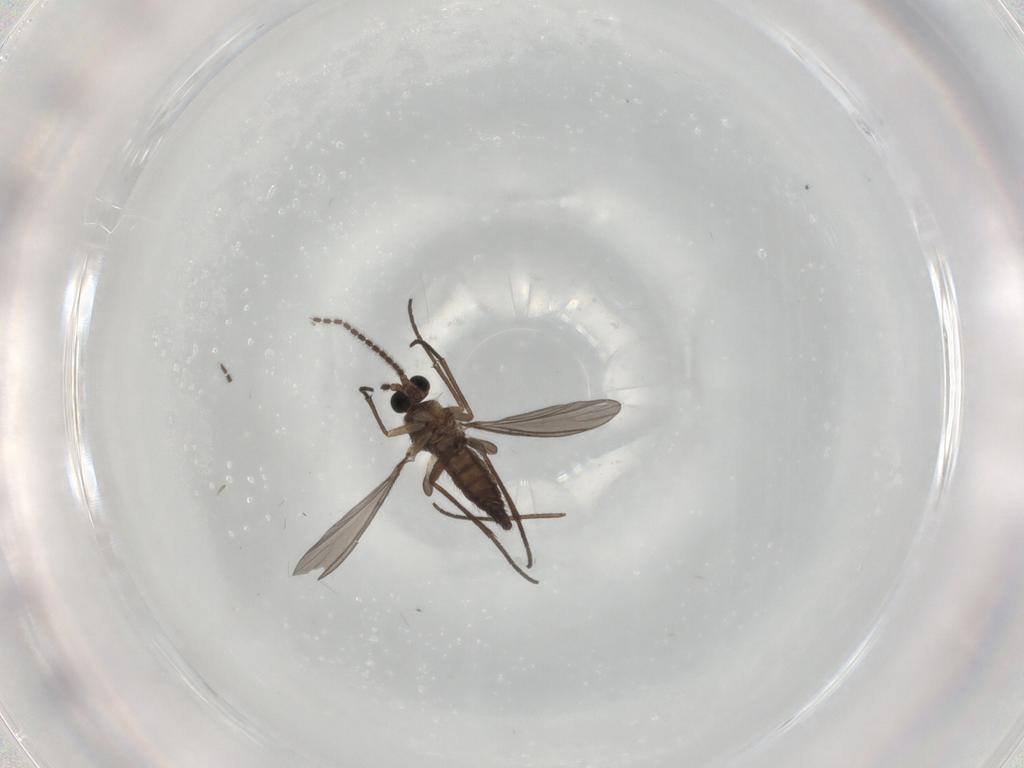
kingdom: Animalia
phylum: Arthropoda
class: Insecta
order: Diptera
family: Sciaridae
